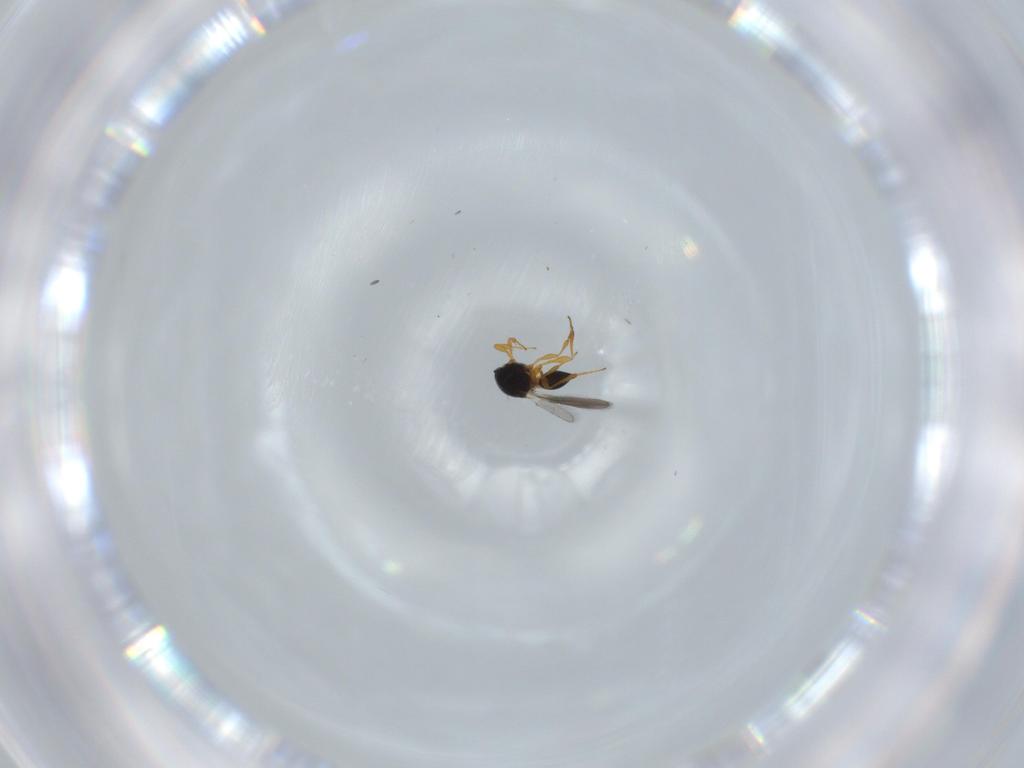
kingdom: Animalia
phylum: Arthropoda
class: Insecta
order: Hymenoptera
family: Platygastridae
